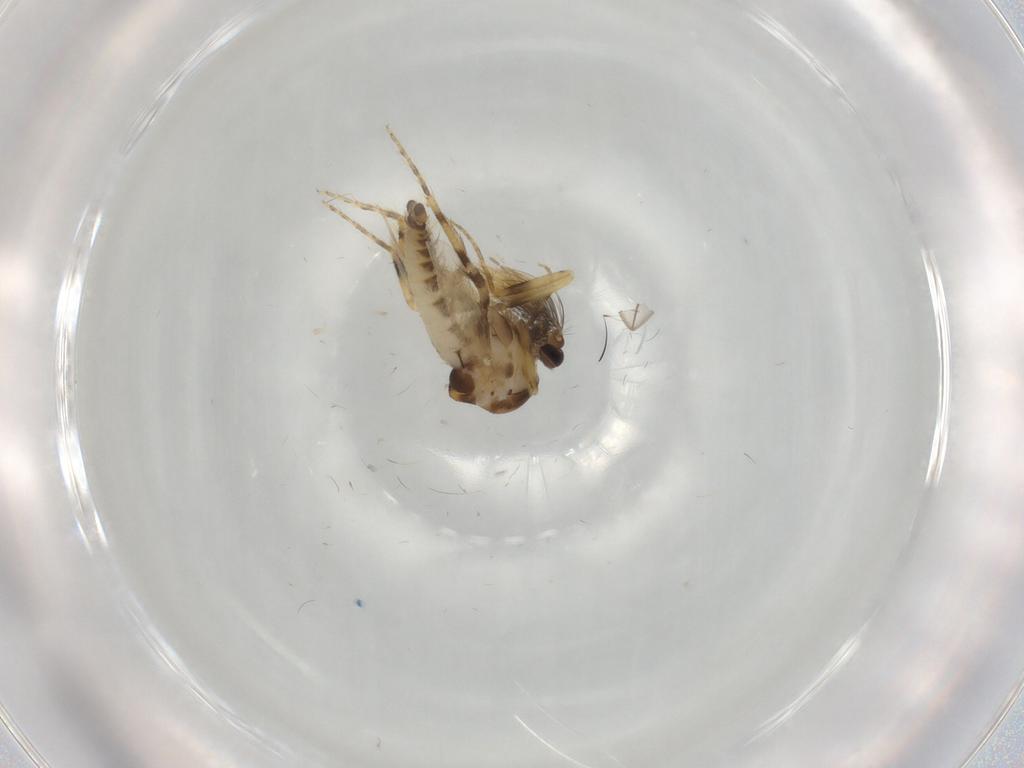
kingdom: Animalia
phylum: Arthropoda
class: Insecta
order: Diptera
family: Ceratopogonidae
